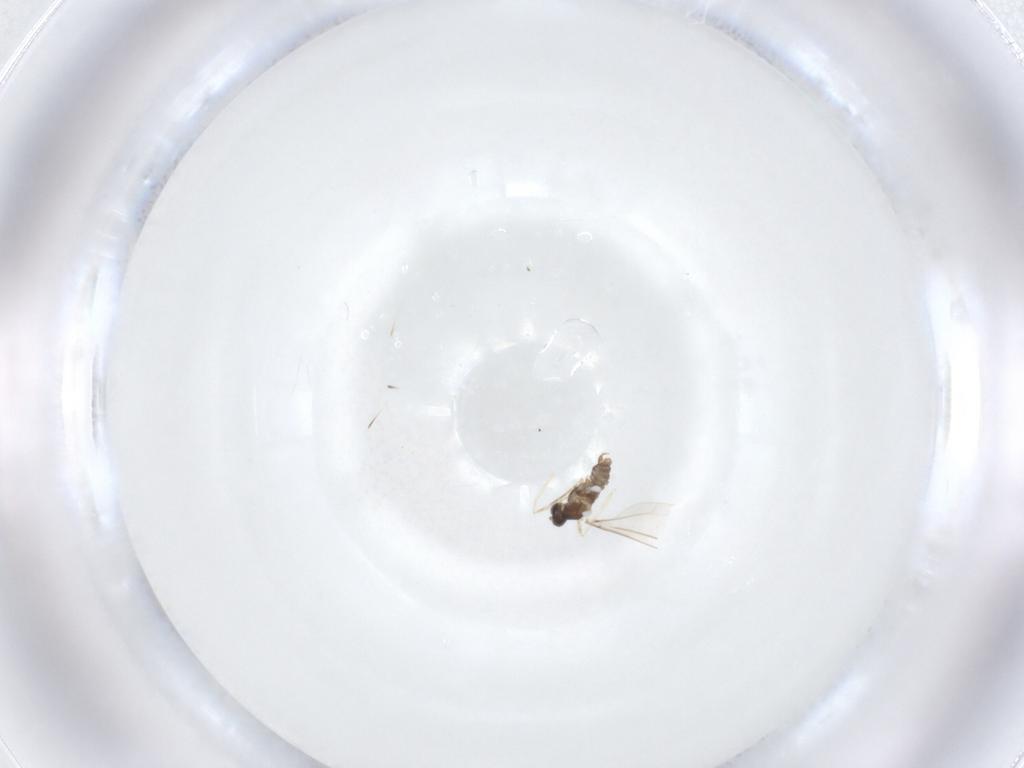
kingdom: Animalia
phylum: Arthropoda
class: Insecta
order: Diptera
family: Cecidomyiidae
